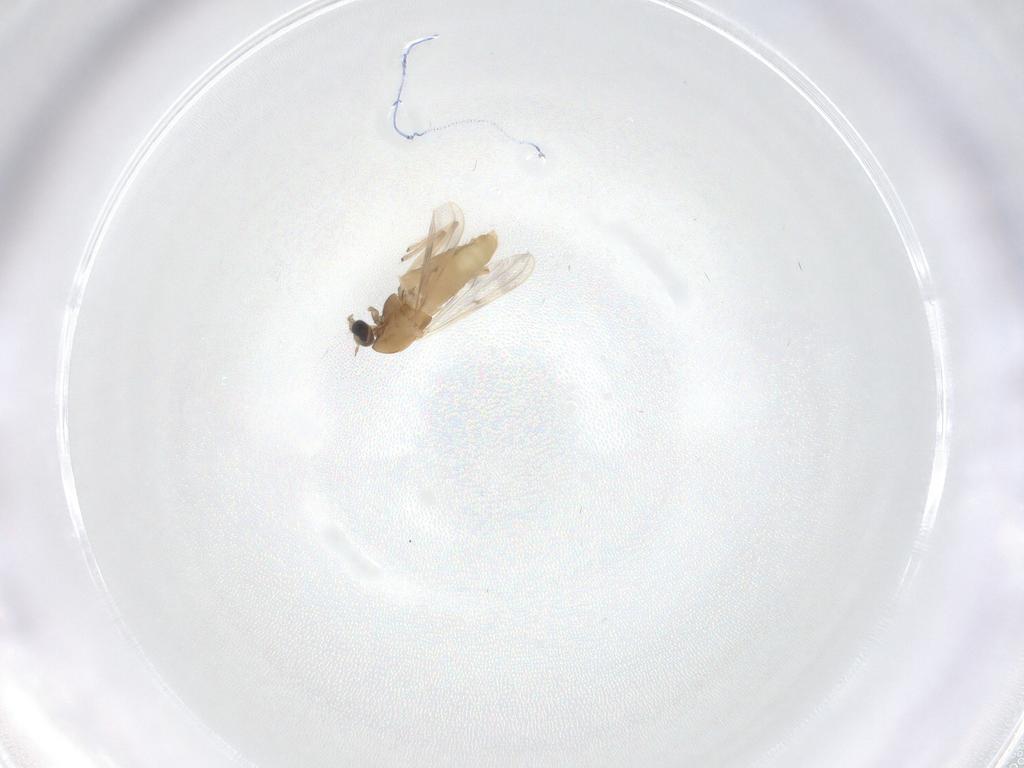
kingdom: Animalia
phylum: Arthropoda
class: Insecta
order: Diptera
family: Chironomidae
